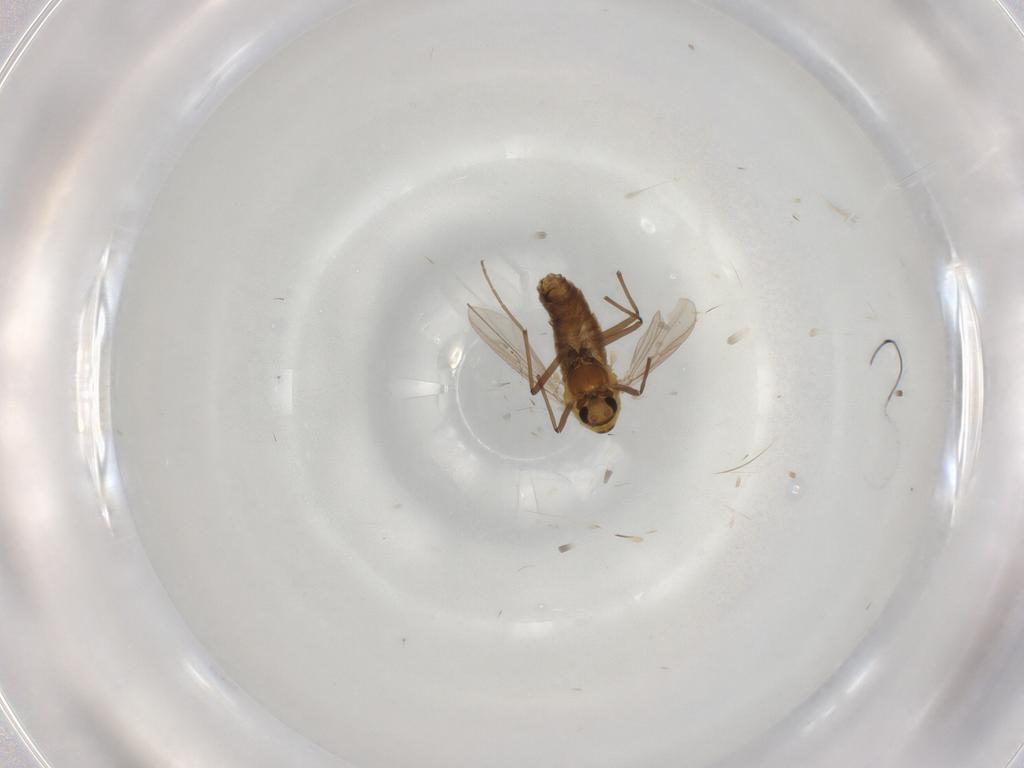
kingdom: Animalia
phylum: Arthropoda
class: Insecta
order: Diptera
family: Chironomidae
